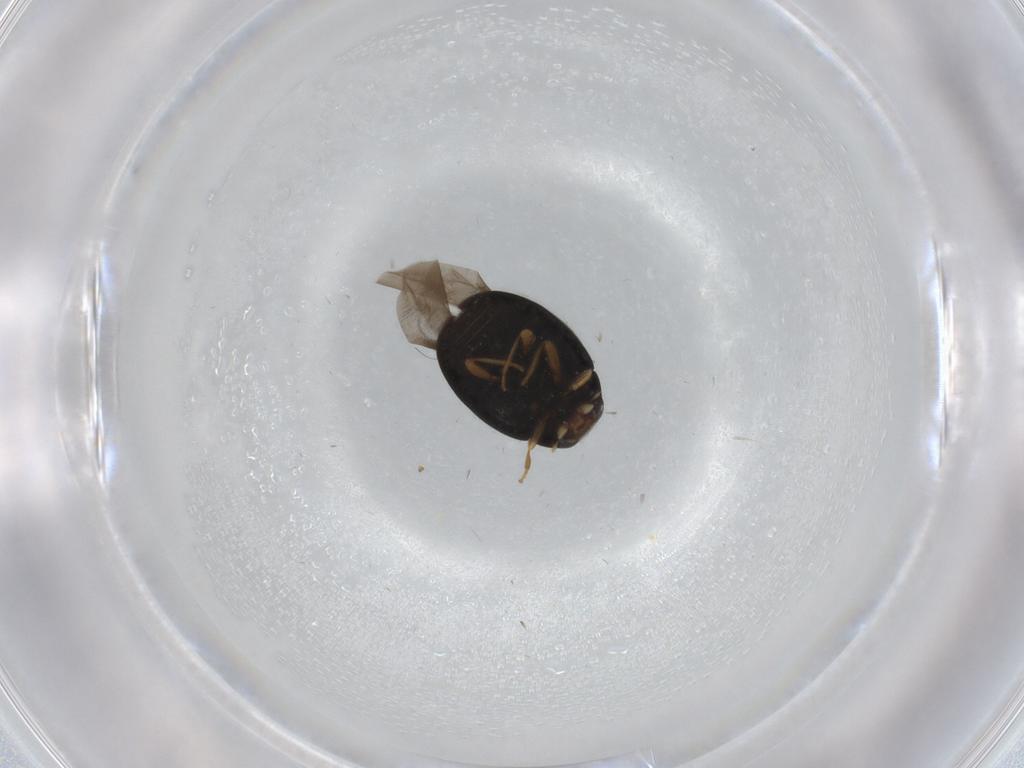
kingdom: Animalia
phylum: Arthropoda
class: Insecta
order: Coleoptera
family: Coccinellidae
